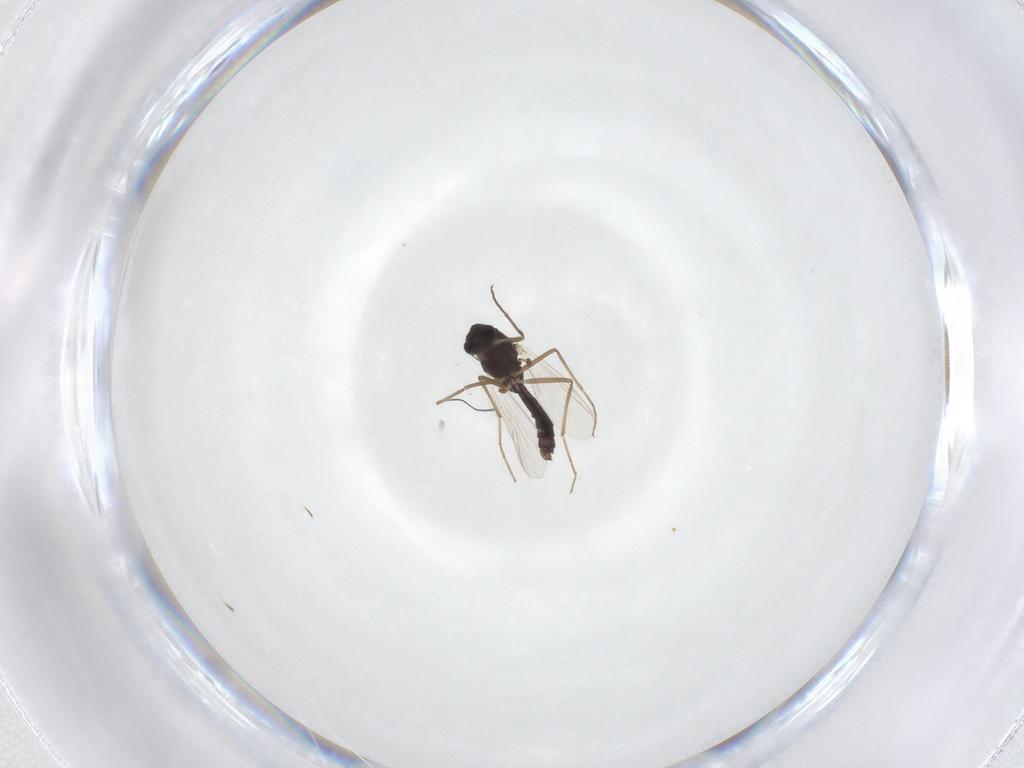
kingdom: Animalia
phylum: Arthropoda
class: Insecta
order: Diptera
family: Chironomidae
